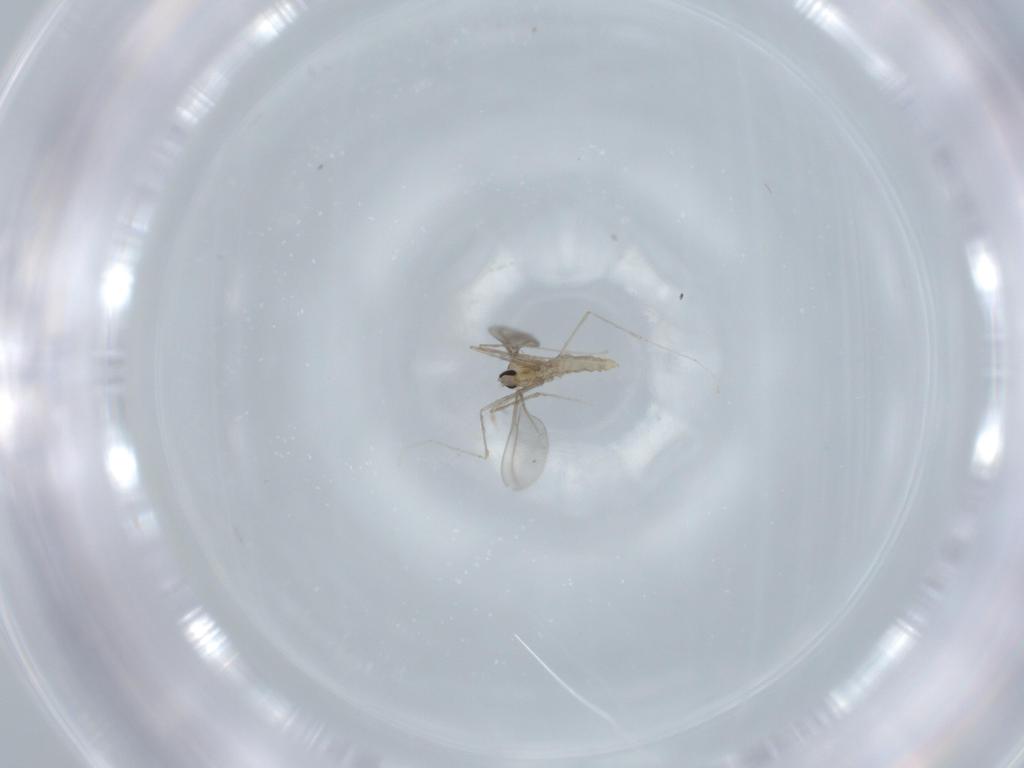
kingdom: Animalia
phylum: Arthropoda
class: Insecta
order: Diptera
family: Cecidomyiidae
